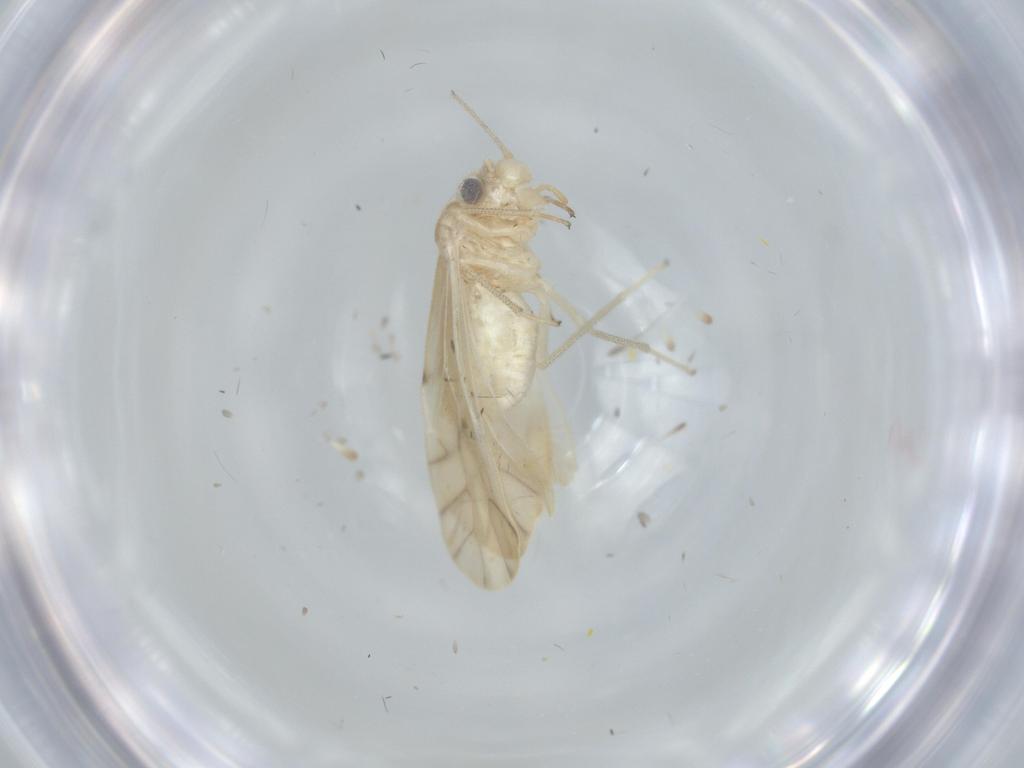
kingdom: Animalia
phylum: Arthropoda
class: Insecta
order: Psocodea
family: Caeciliusidae
